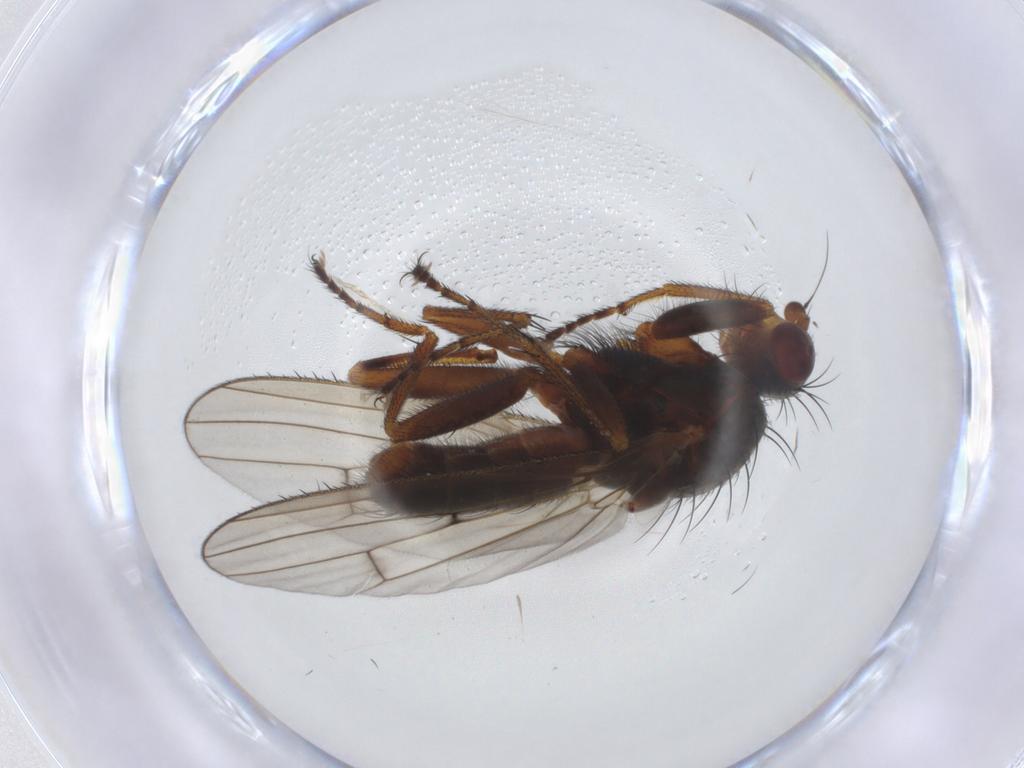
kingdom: Animalia
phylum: Arthropoda
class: Insecta
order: Diptera
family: Heleomyzidae
